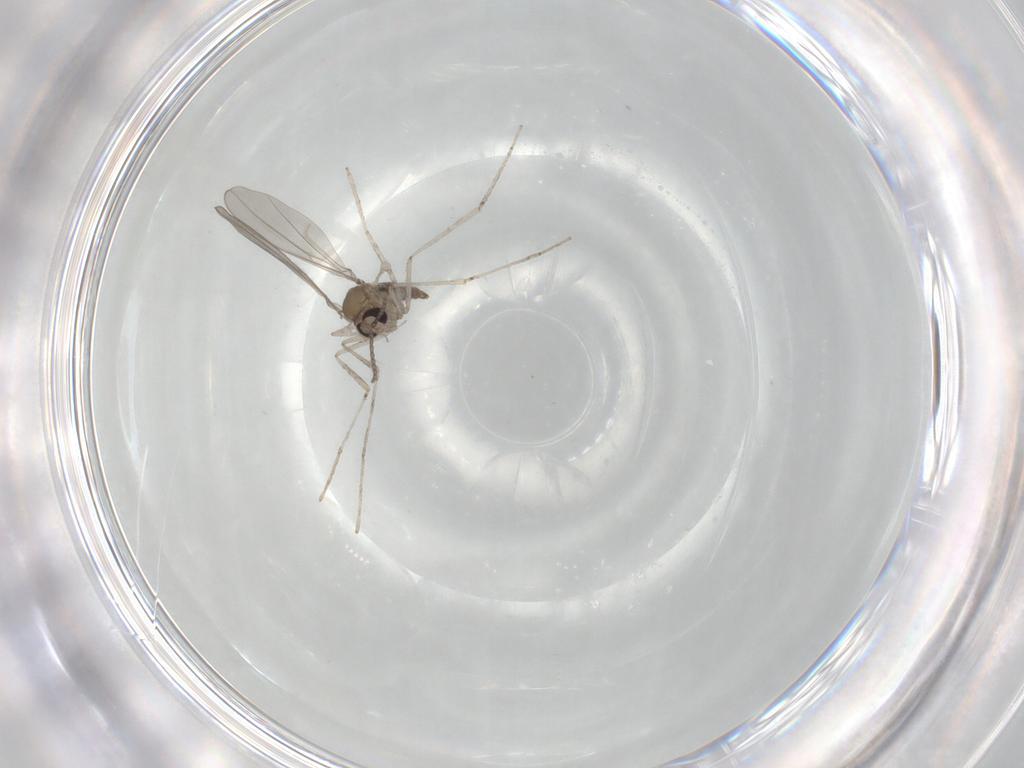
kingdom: Animalia
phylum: Arthropoda
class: Insecta
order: Diptera
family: Cecidomyiidae
